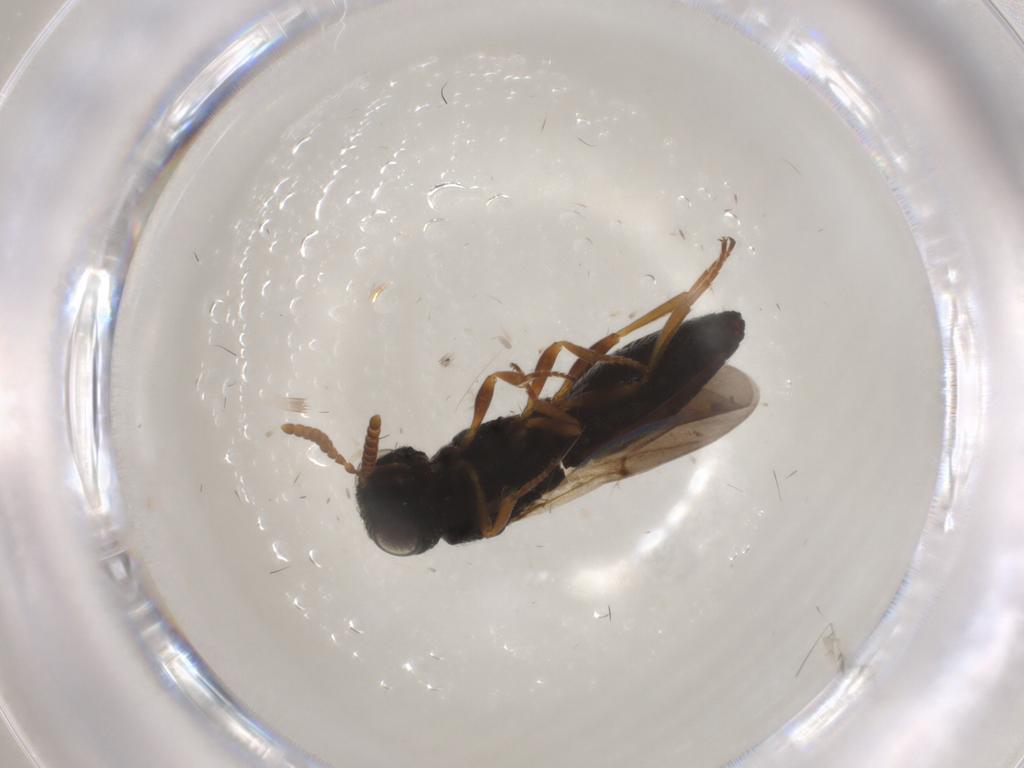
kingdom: Animalia
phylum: Arthropoda
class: Insecta
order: Hymenoptera
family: Scelionidae
